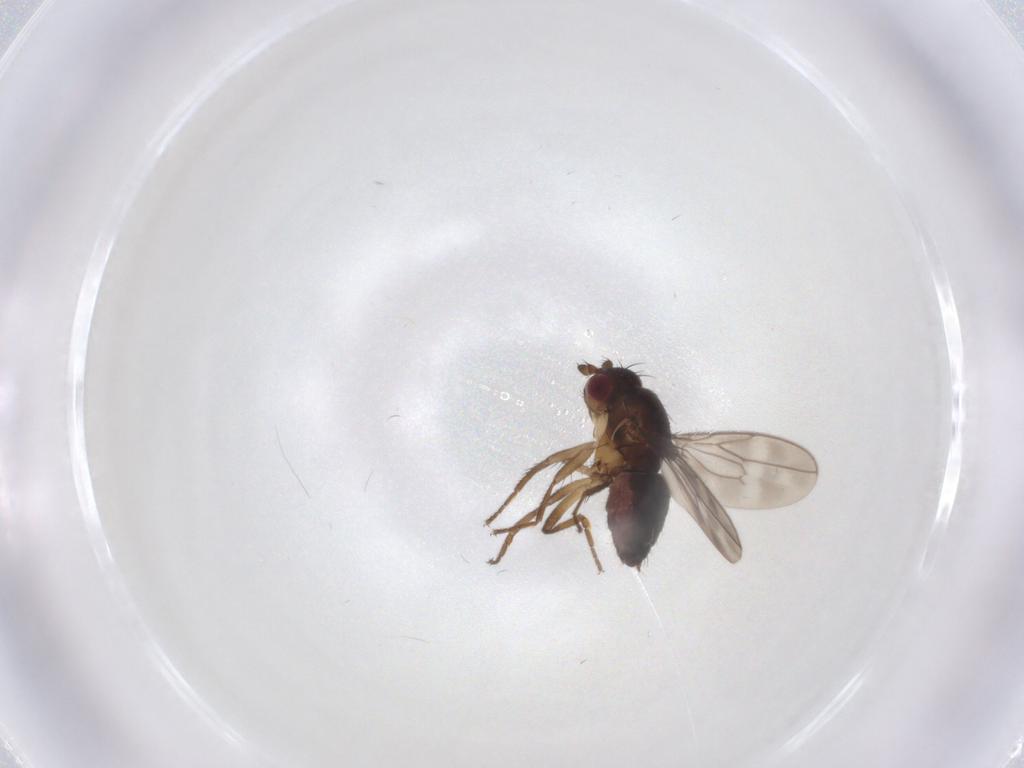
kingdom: Animalia
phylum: Arthropoda
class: Insecta
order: Diptera
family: Sphaeroceridae
